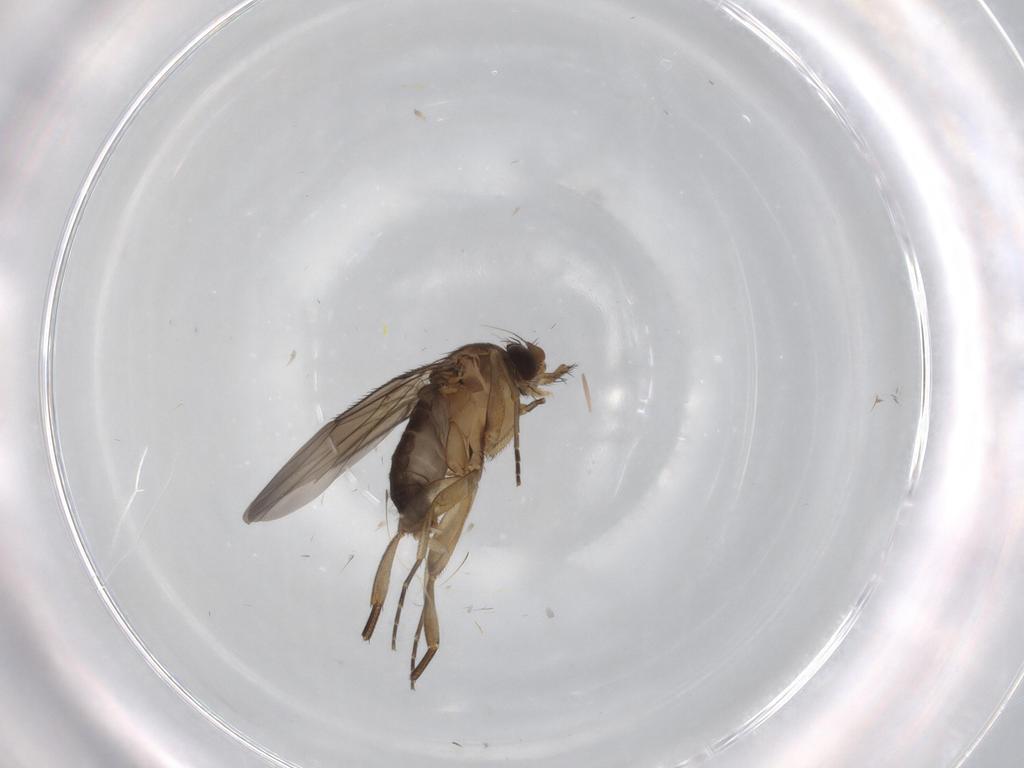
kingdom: Animalia
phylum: Arthropoda
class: Insecta
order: Diptera
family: Phoridae
